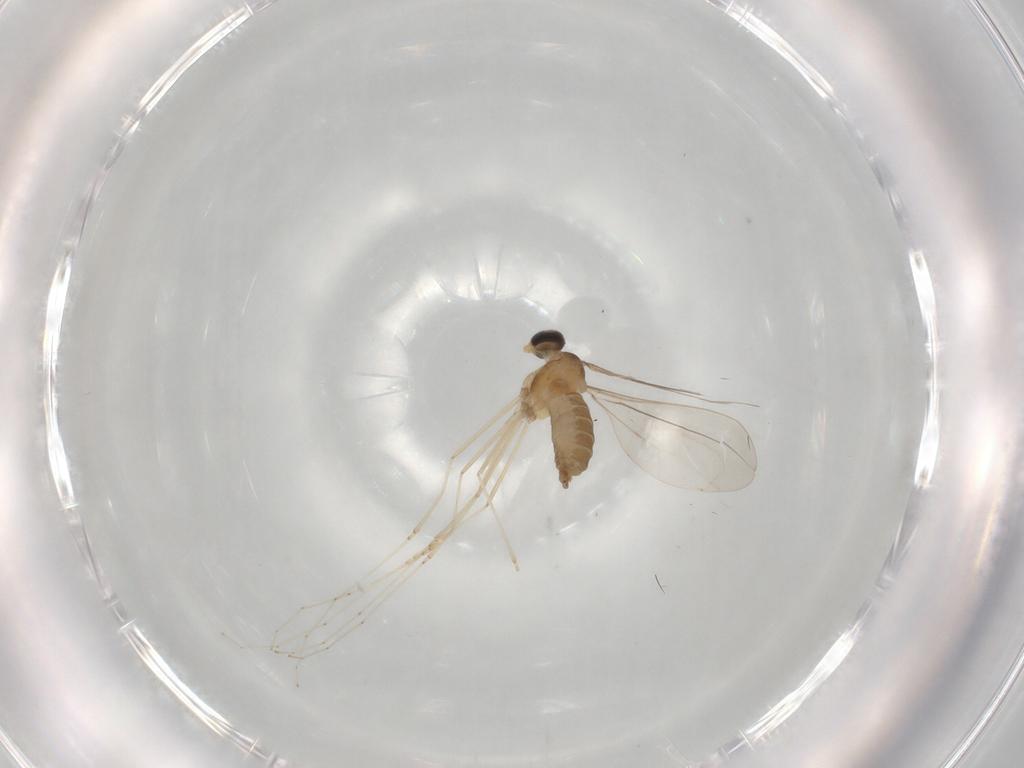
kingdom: Animalia
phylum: Arthropoda
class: Insecta
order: Diptera
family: Cecidomyiidae
